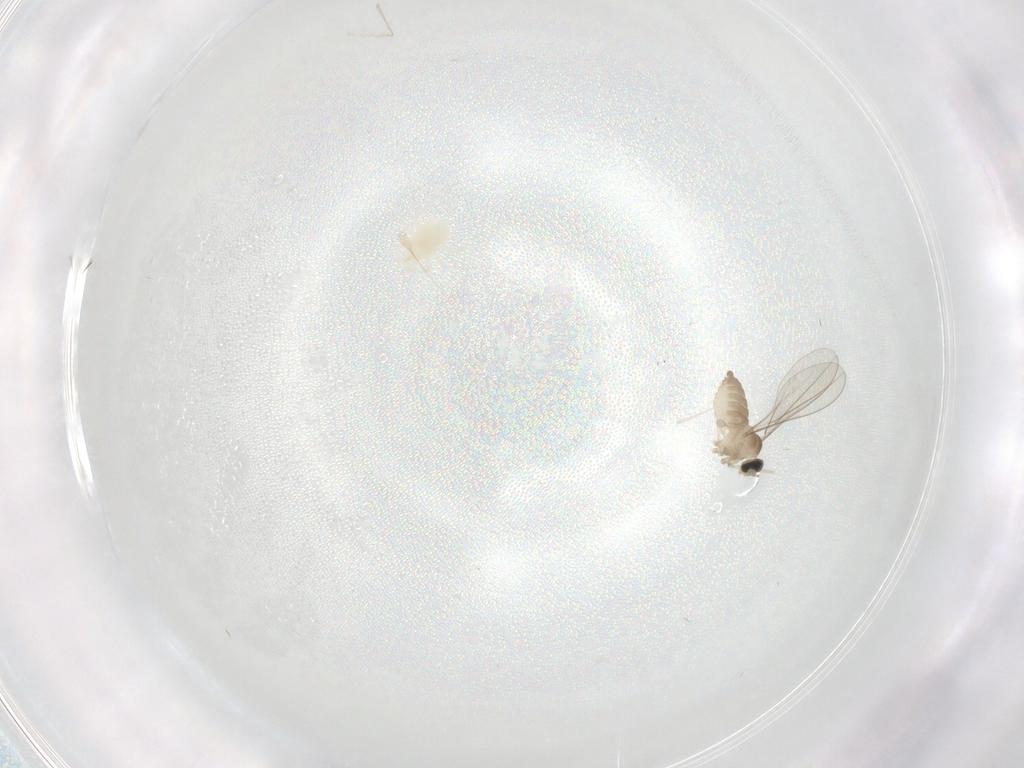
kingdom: Animalia
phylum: Arthropoda
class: Insecta
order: Diptera
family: Cecidomyiidae
